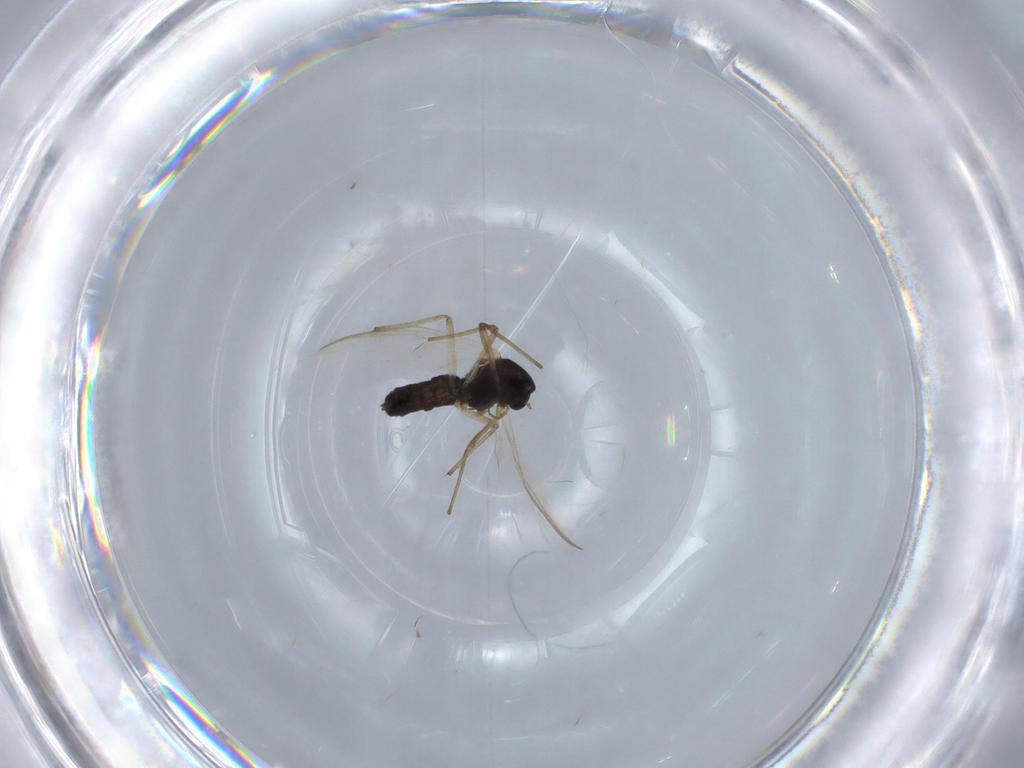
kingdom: Animalia
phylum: Arthropoda
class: Insecta
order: Diptera
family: Chironomidae
